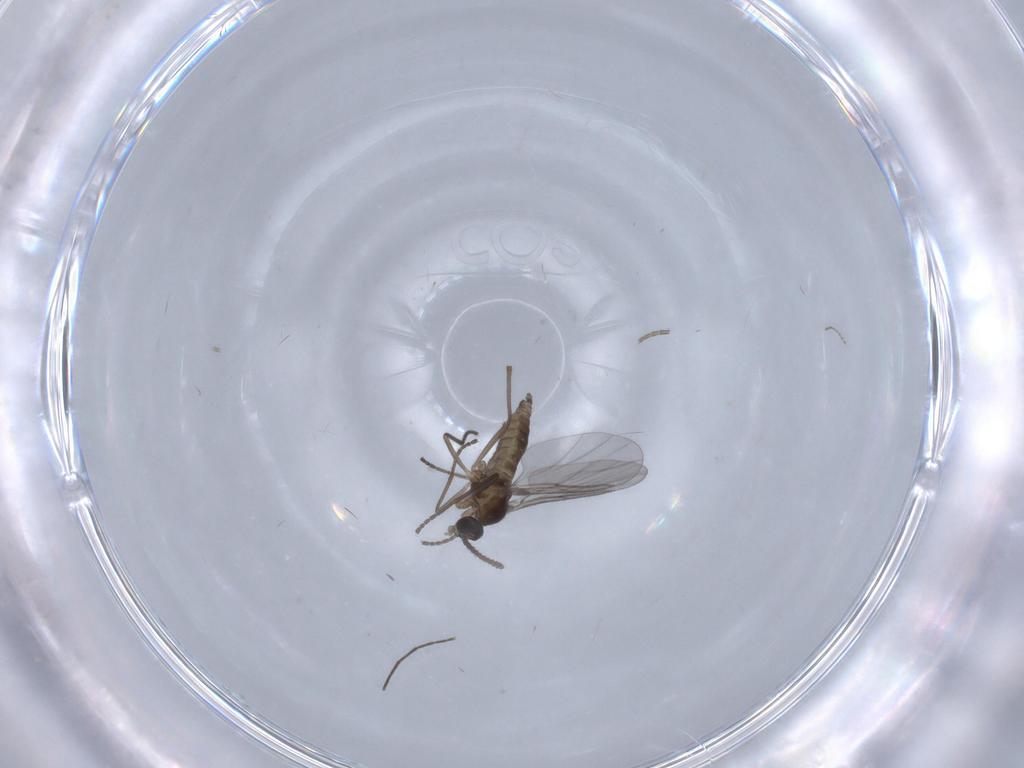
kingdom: Animalia
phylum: Arthropoda
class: Insecta
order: Diptera
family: Cecidomyiidae
